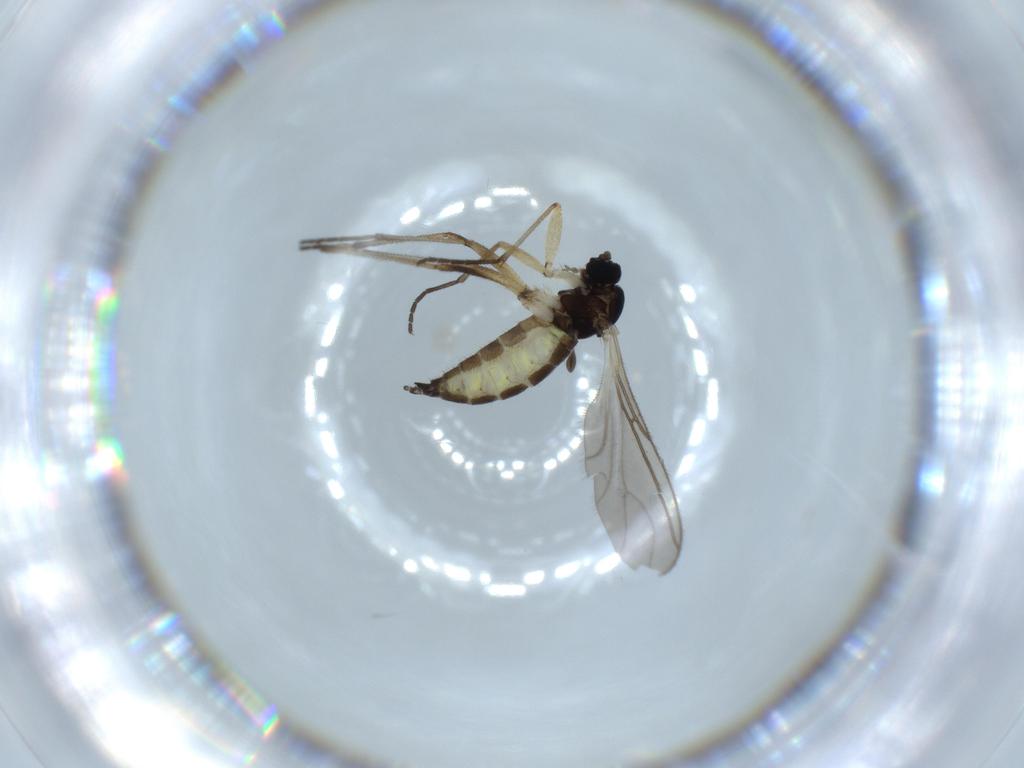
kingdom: Animalia
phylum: Arthropoda
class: Insecta
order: Diptera
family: Sciaridae
